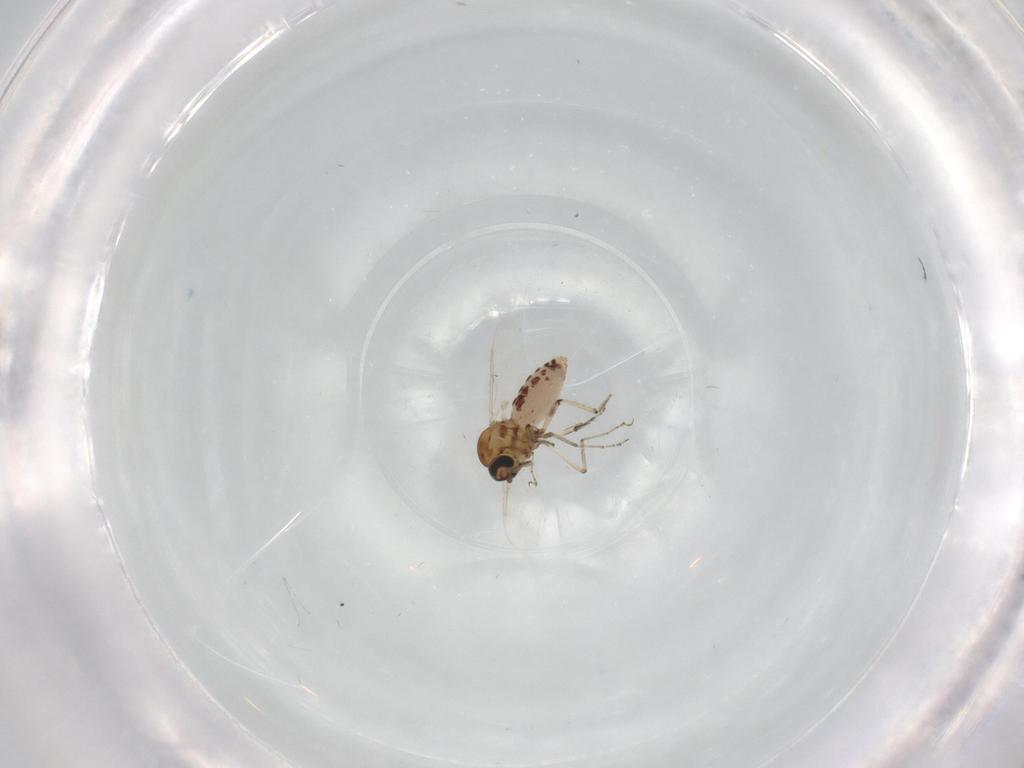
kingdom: Animalia
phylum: Arthropoda
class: Insecta
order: Diptera
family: Ceratopogonidae
